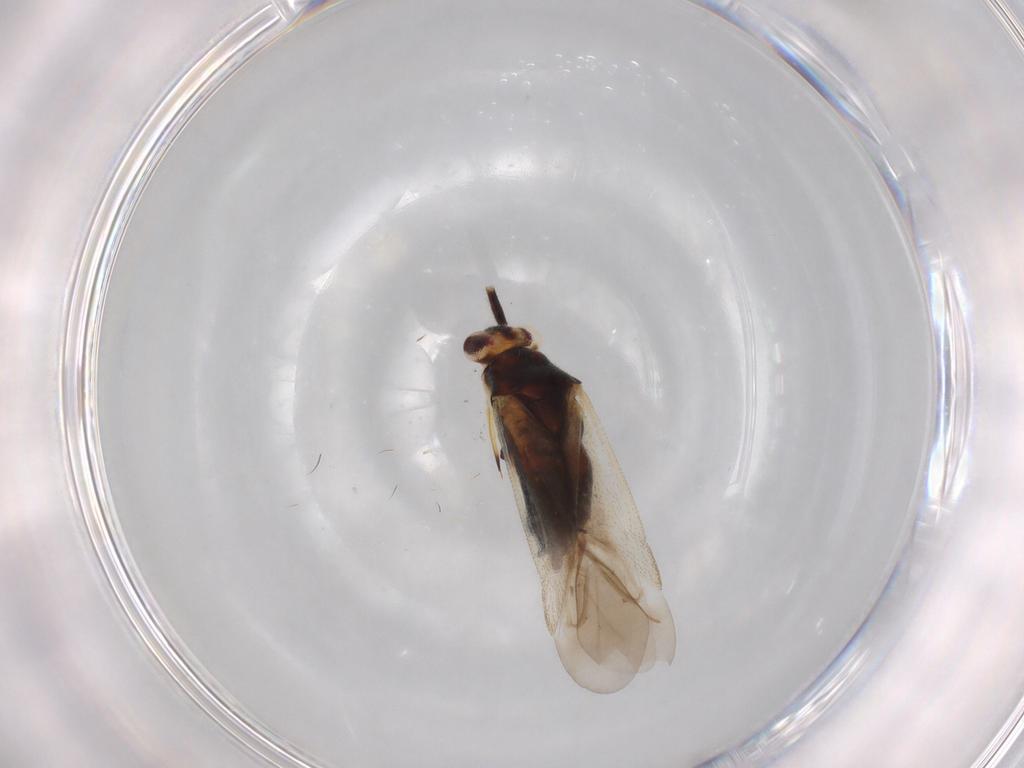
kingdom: Animalia
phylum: Arthropoda
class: Insecta
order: Hemiptera
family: Miridae
